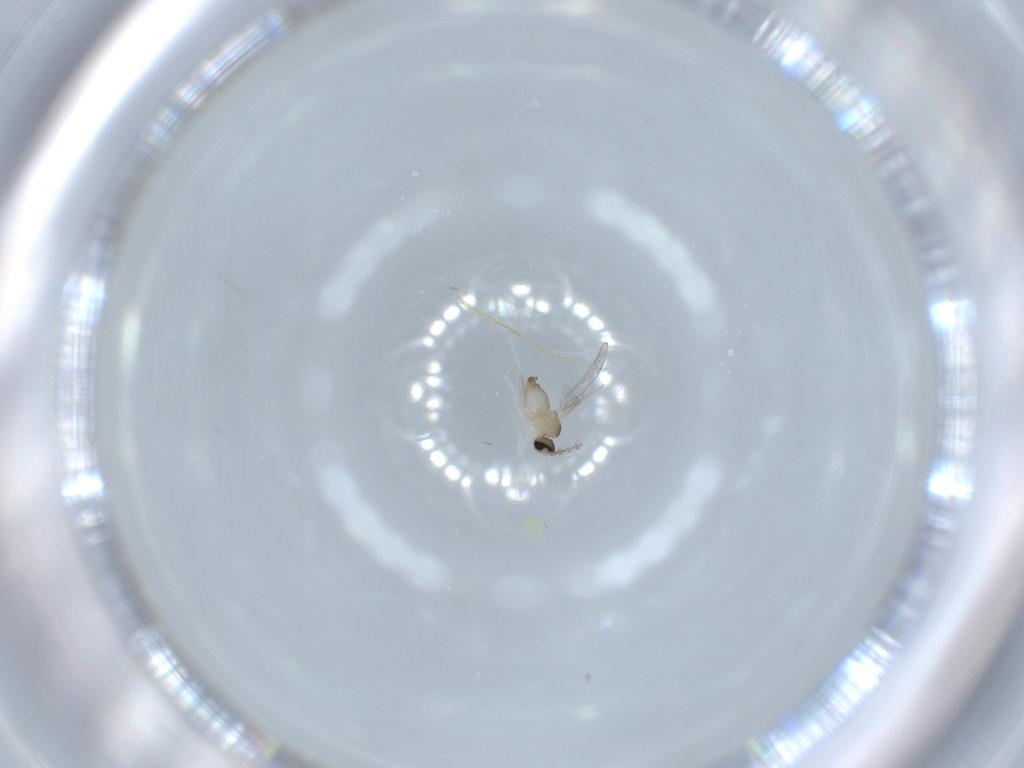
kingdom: Animalia
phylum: Arthropoda
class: Insecta
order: Diptera
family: Cecidomyiidae
